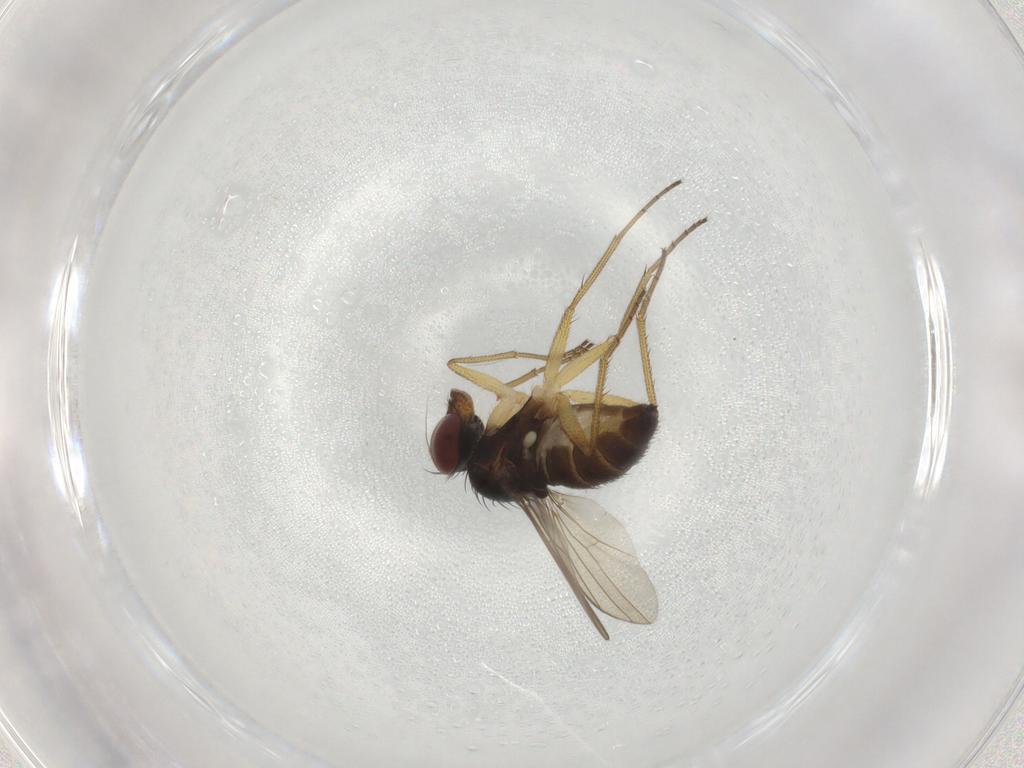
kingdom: Animalia
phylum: Arthropoda
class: Insecta
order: Diptera
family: Dolichopodidae
